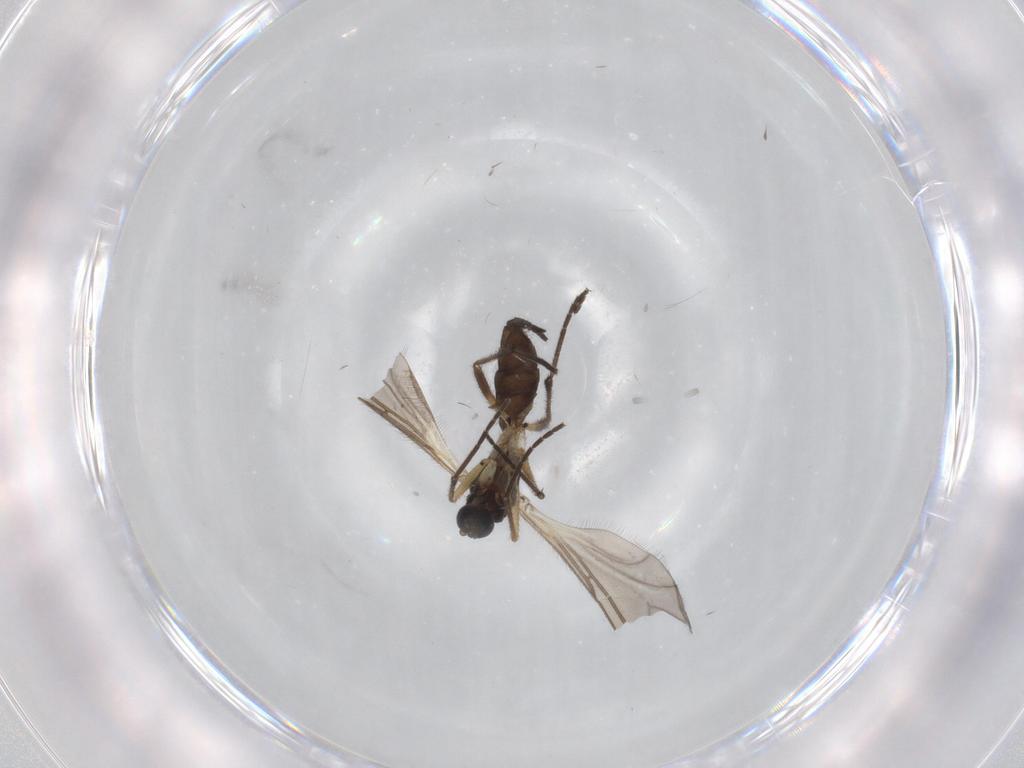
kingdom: Animalia
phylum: Arthropoda
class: Insecta
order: Diptera
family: Sciaridae
